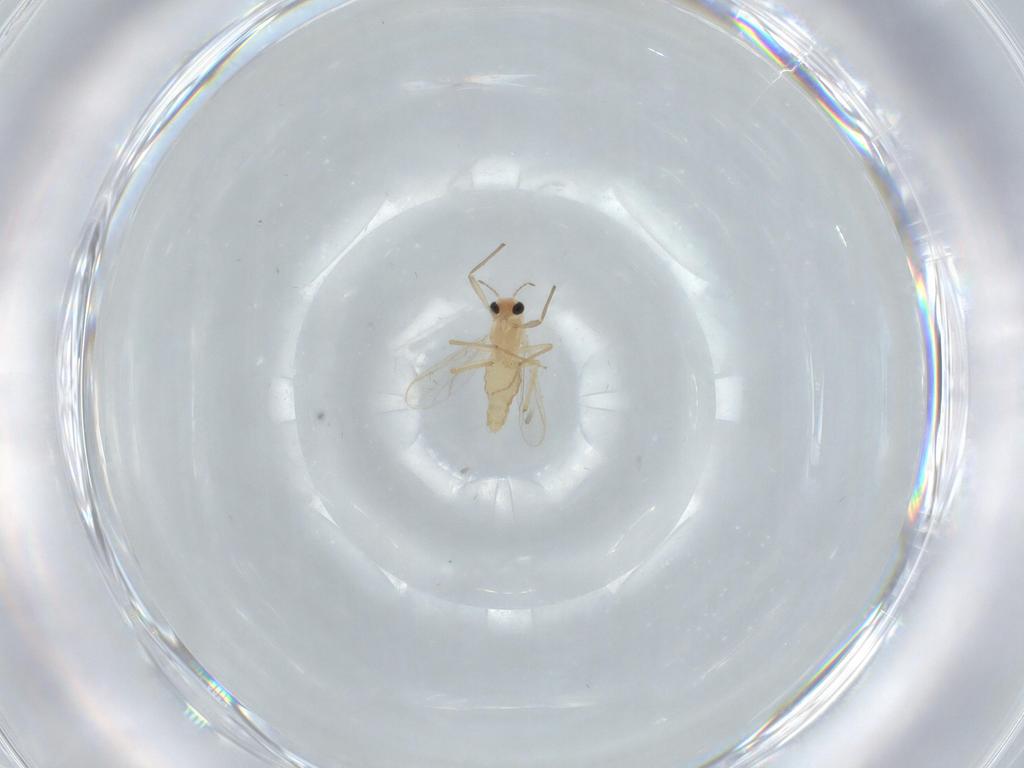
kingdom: Animalia
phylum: Arthropoda
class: Insecta
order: Diptera
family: Chironomidae
